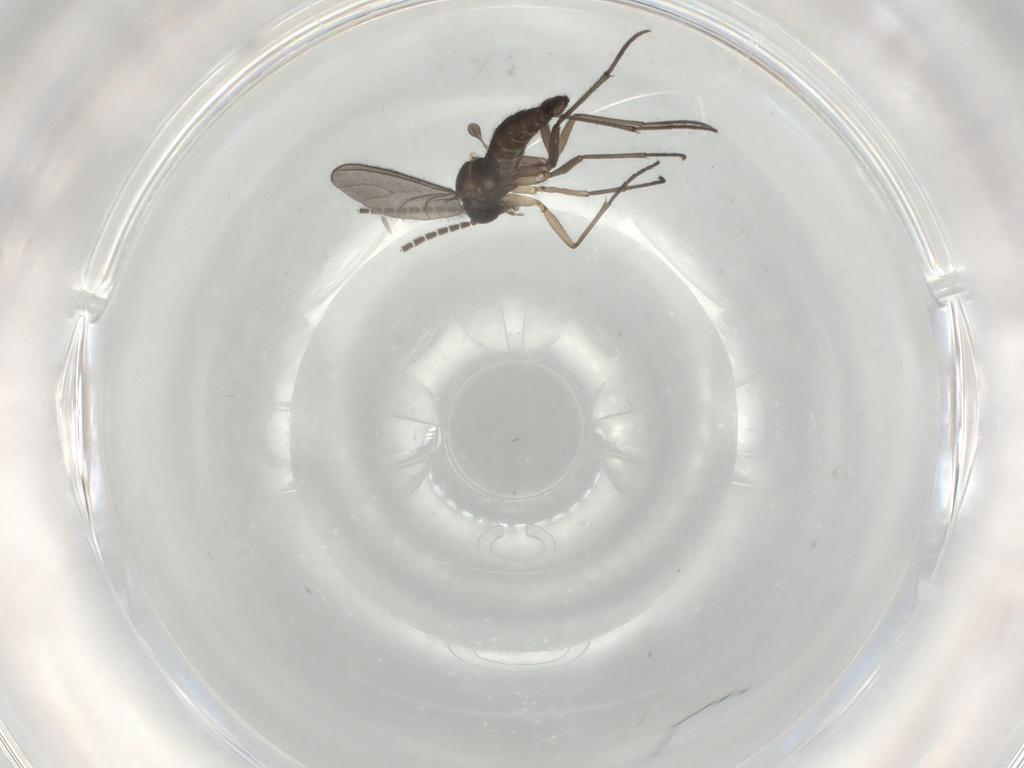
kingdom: Animalia
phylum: Arthropoda
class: Insecta
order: Diptera
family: Sciaridae
